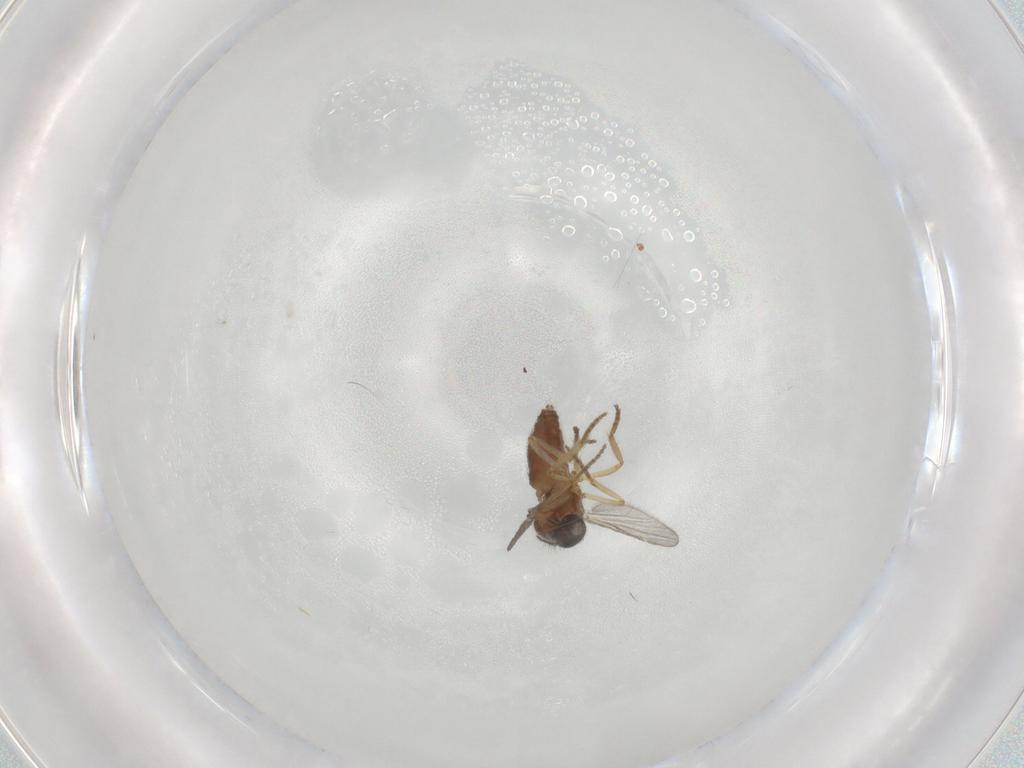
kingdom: Animalia
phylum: Arthropoda
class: Insecta
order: Diptera
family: Ceratopogonidae
